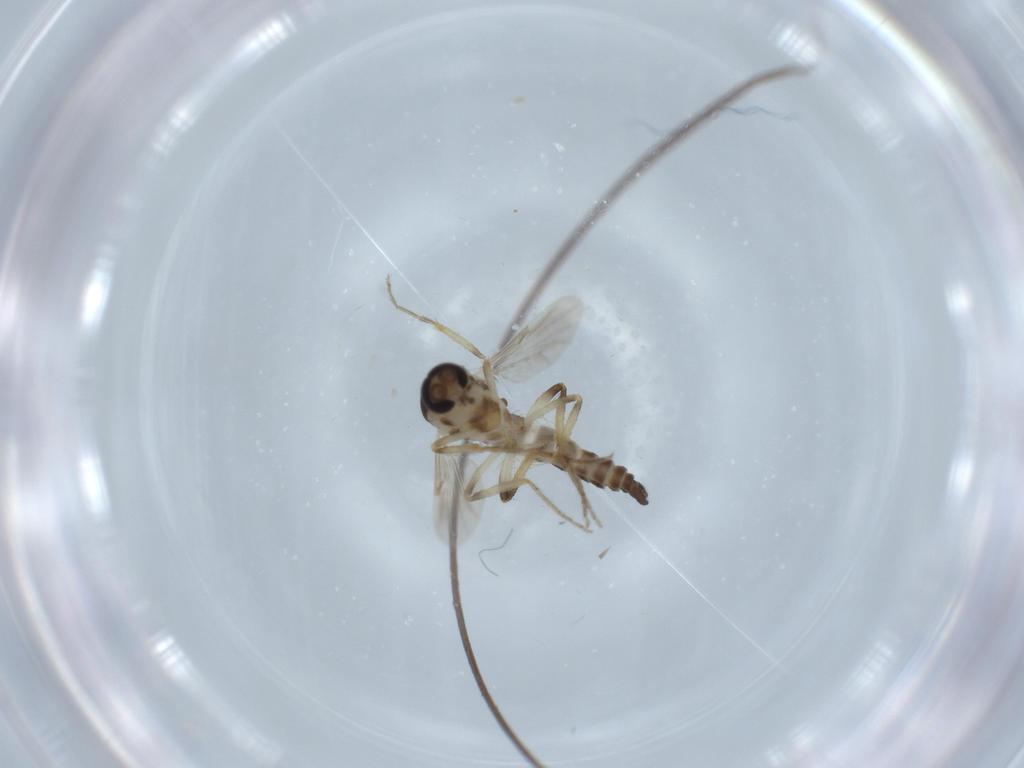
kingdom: Animalia
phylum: Arthropoda
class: Insecta
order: Diptera
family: Ceratopogonidae
